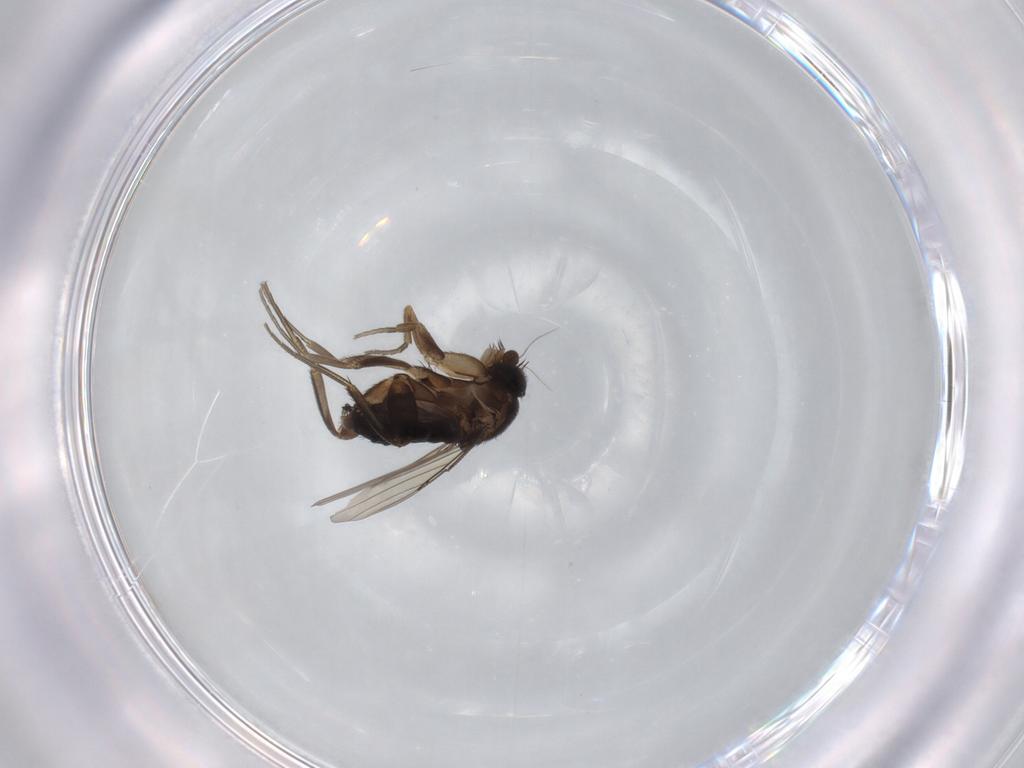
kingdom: Animalia
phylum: Arthropoda
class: Insecta
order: Diptera
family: Phoridae
